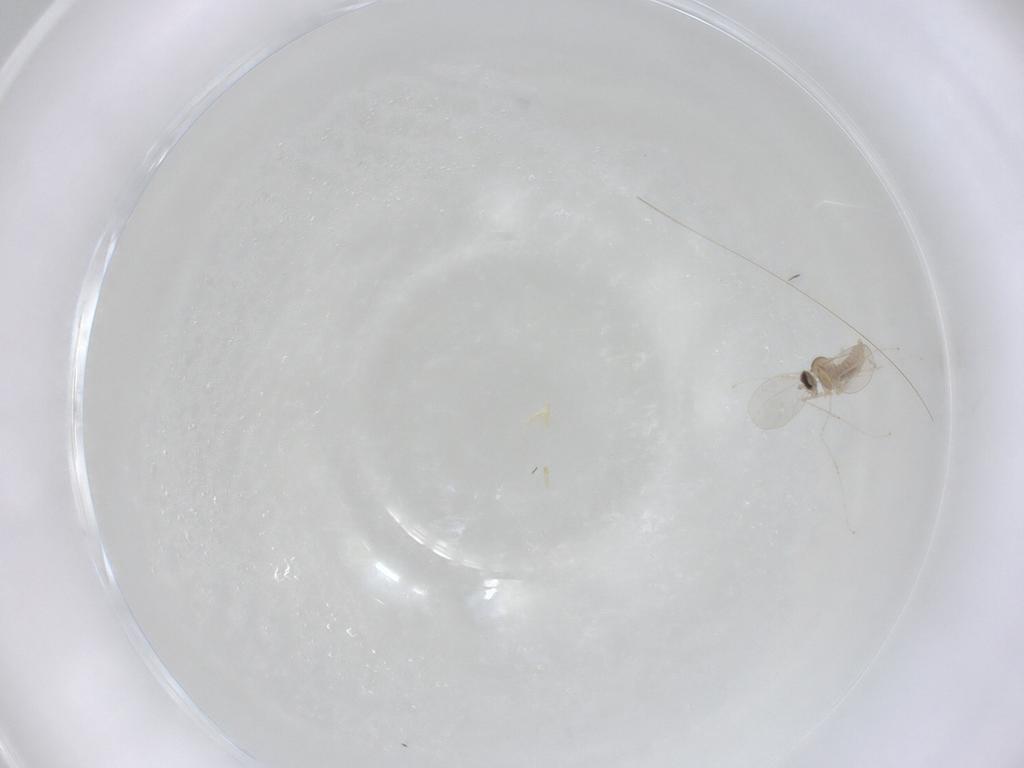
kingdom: Animalia
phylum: Arthropoda
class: Insecta
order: Diptera
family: Cecidomyiidae
